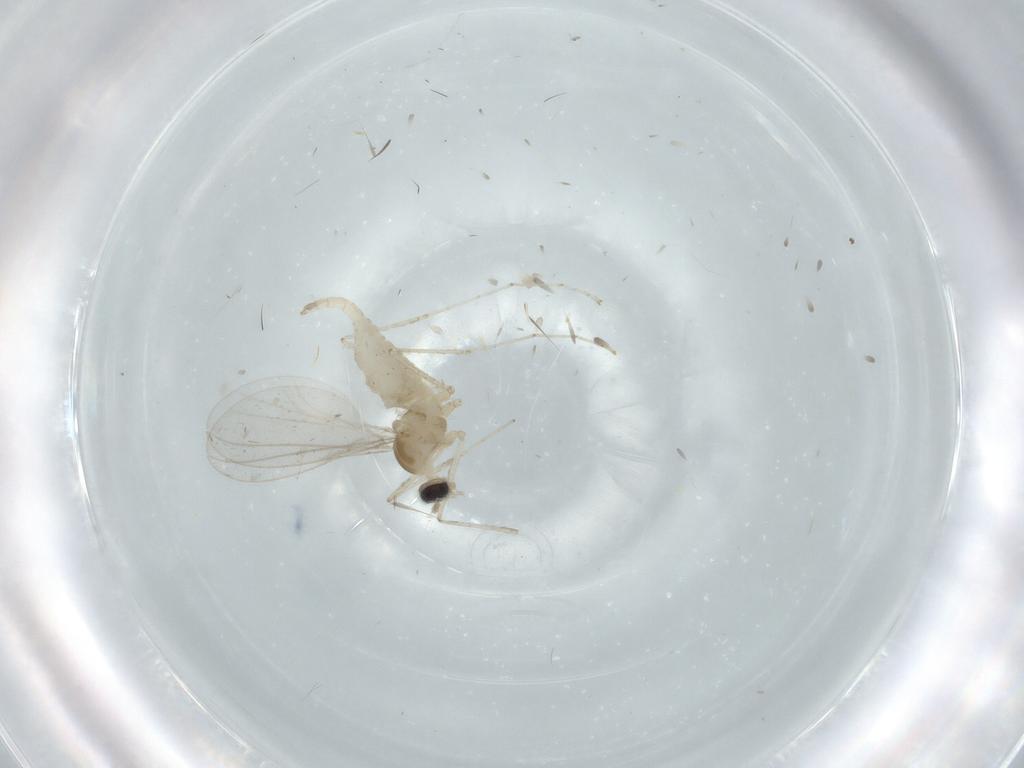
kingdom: Animalia
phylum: Arthropoda
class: Insecta
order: Diptera
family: Cecidomyiidae
